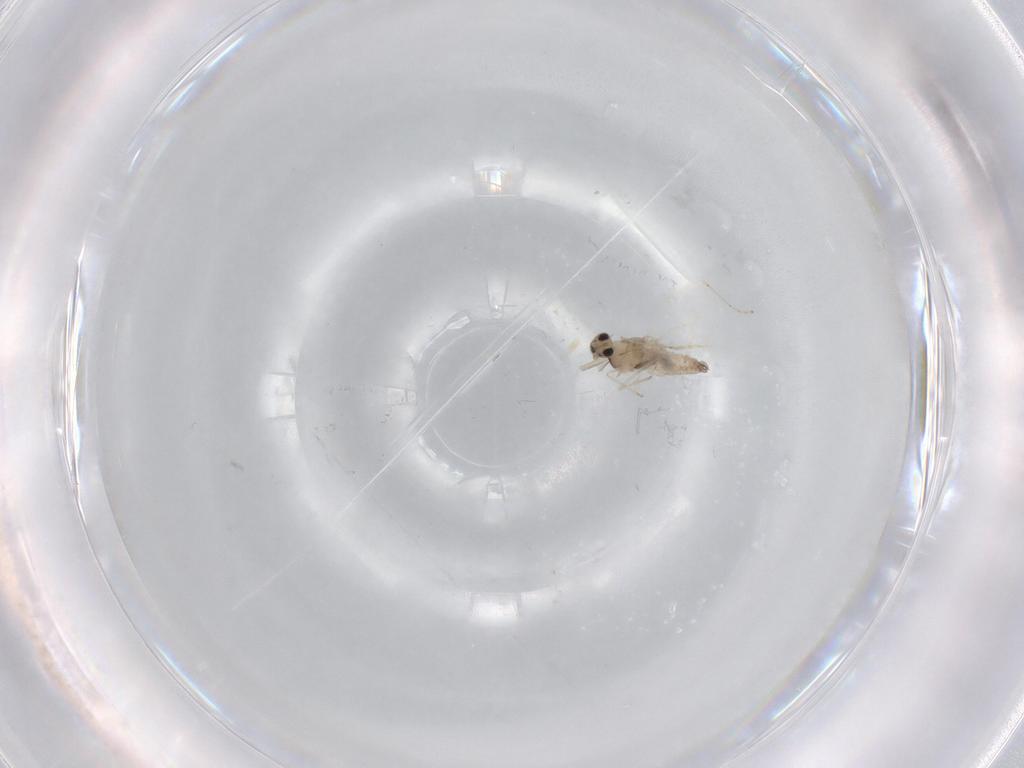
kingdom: Animalia
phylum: Arthropoda
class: Insecta
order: Diptera
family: Cecidomyiidae
